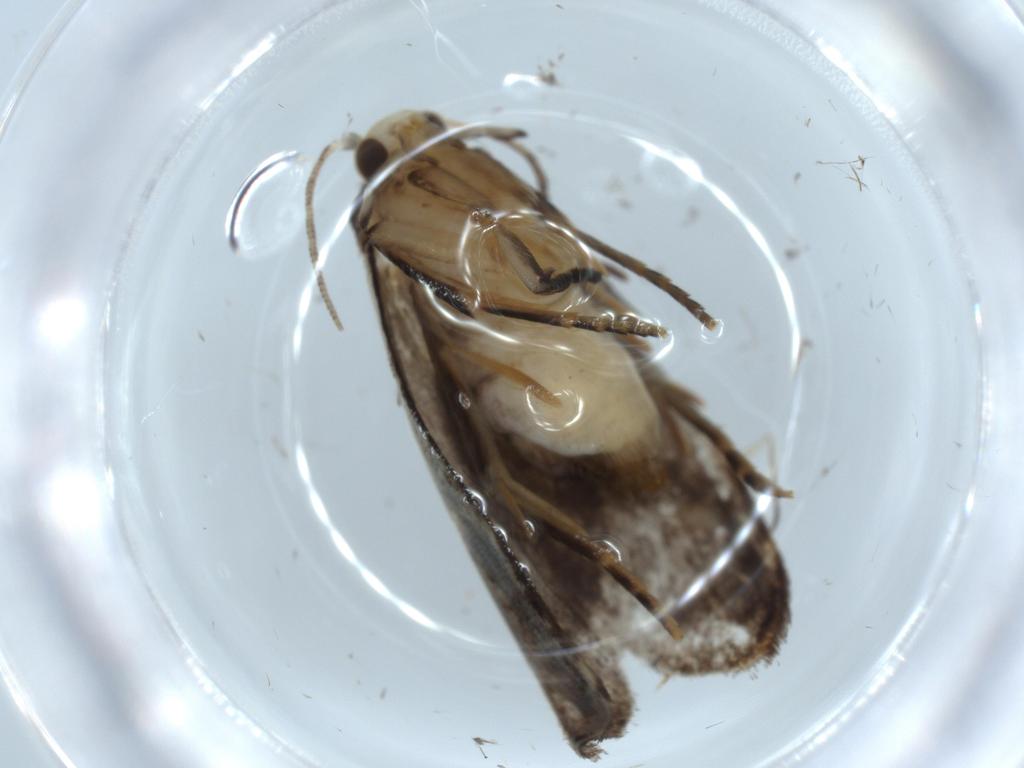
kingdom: Animalia
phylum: Arthropoda
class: Insecta
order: Lepidoptera
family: Dryadaulidae
